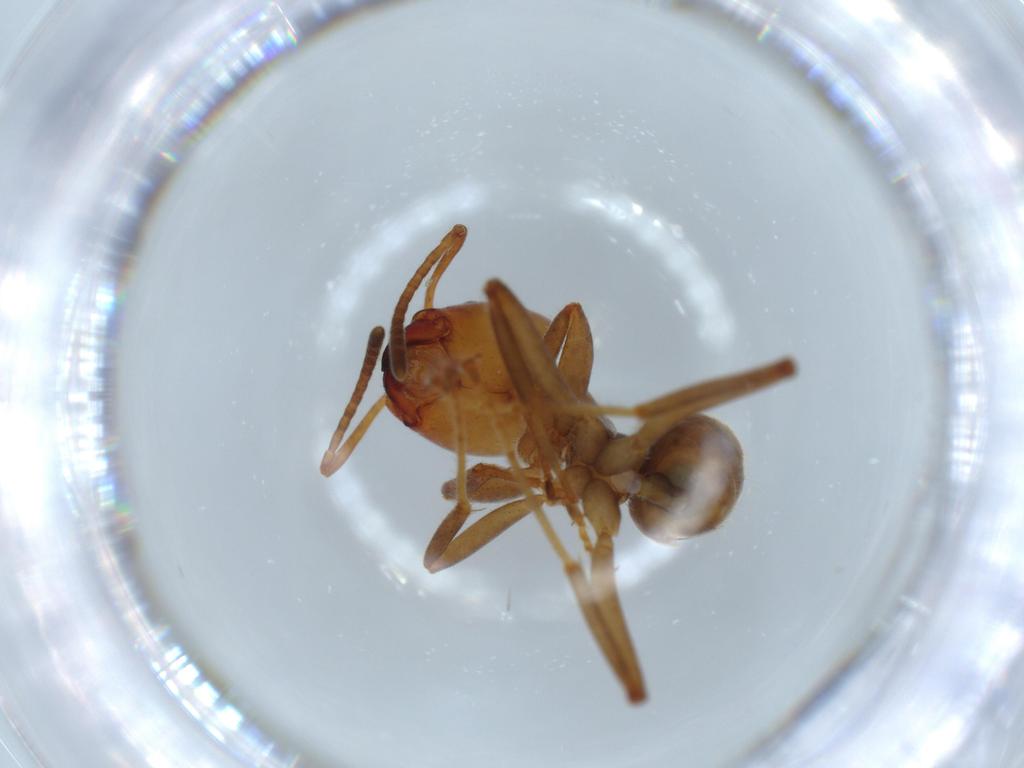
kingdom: Animalia
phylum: Arthropoda
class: Insecta
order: Hymenoptera
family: Formicidae
